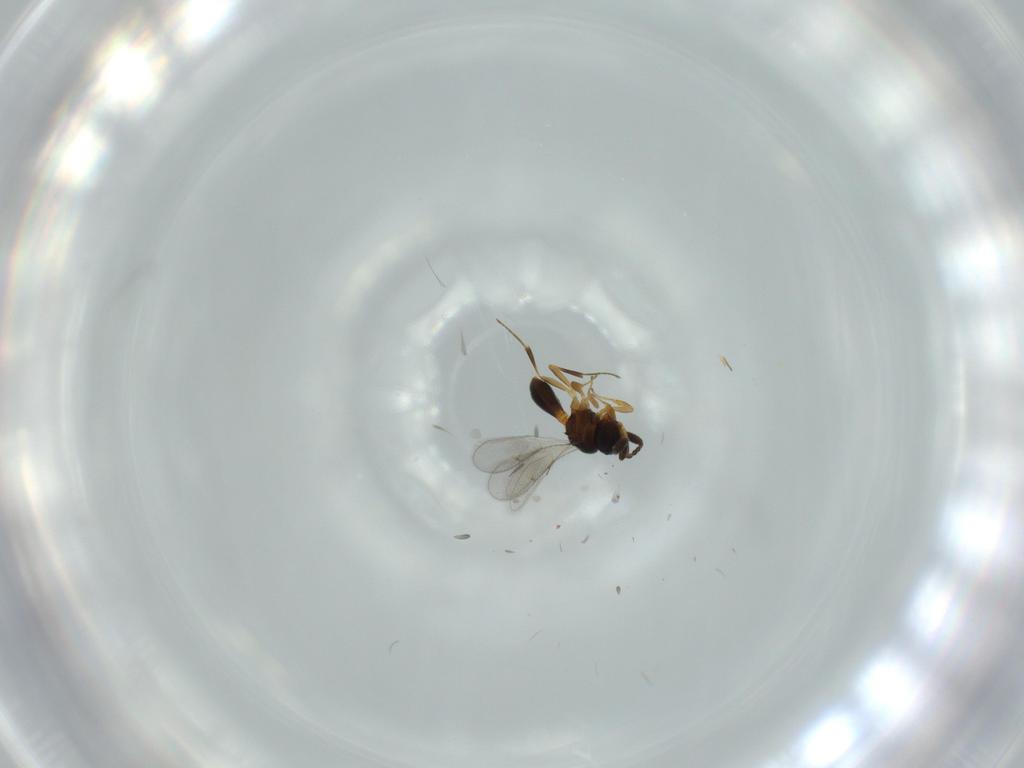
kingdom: Animalia
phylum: Arthropoda
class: Insecta
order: Hymenoptera
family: Scelionidae
